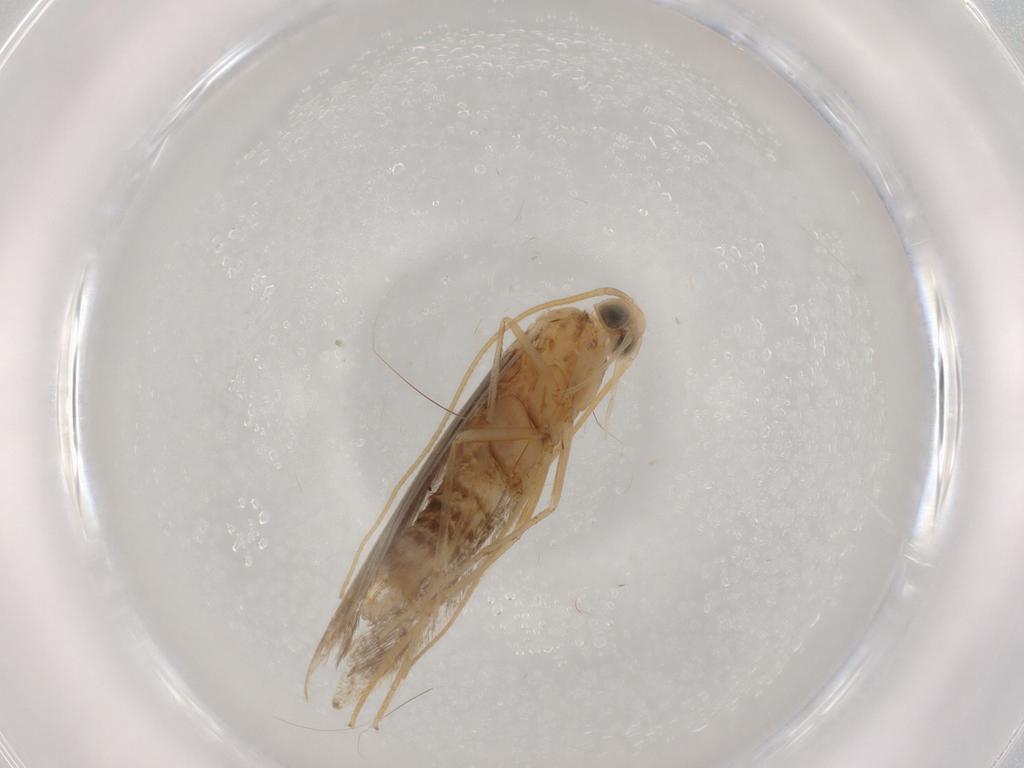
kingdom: Animalia
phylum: Arthropoda
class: Insecta
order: Lepidoptera
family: Coleophoridae
